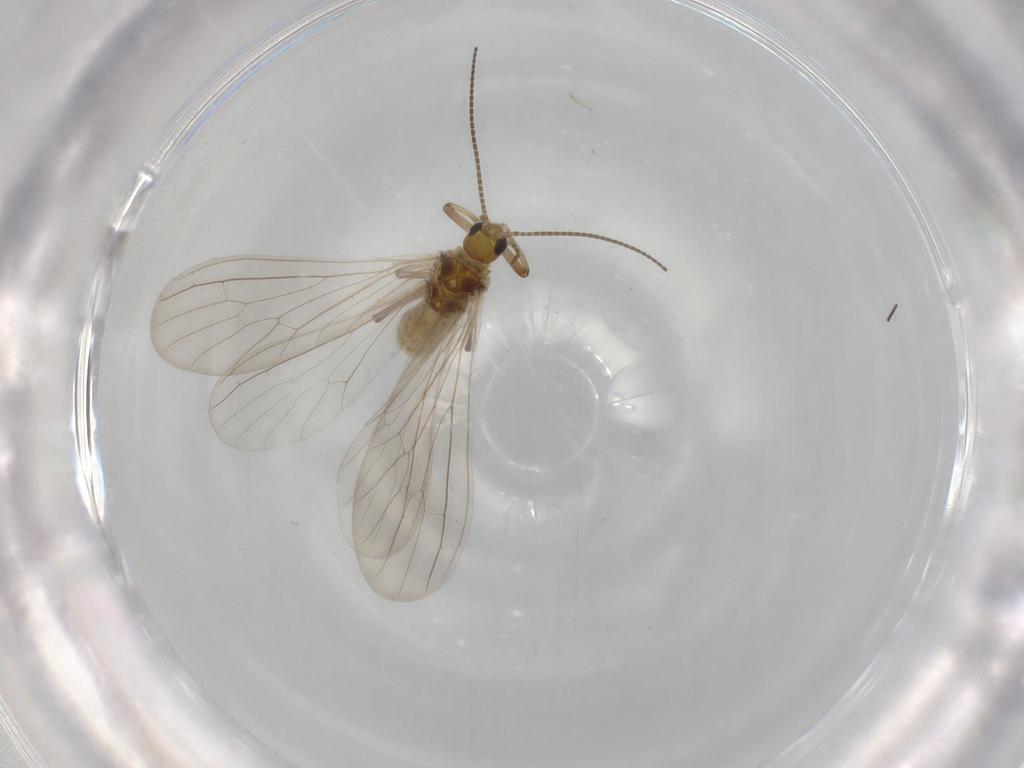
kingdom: Animalia
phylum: Arthropoda
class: Insecta
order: Neuroptera
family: Coniopterygidae
